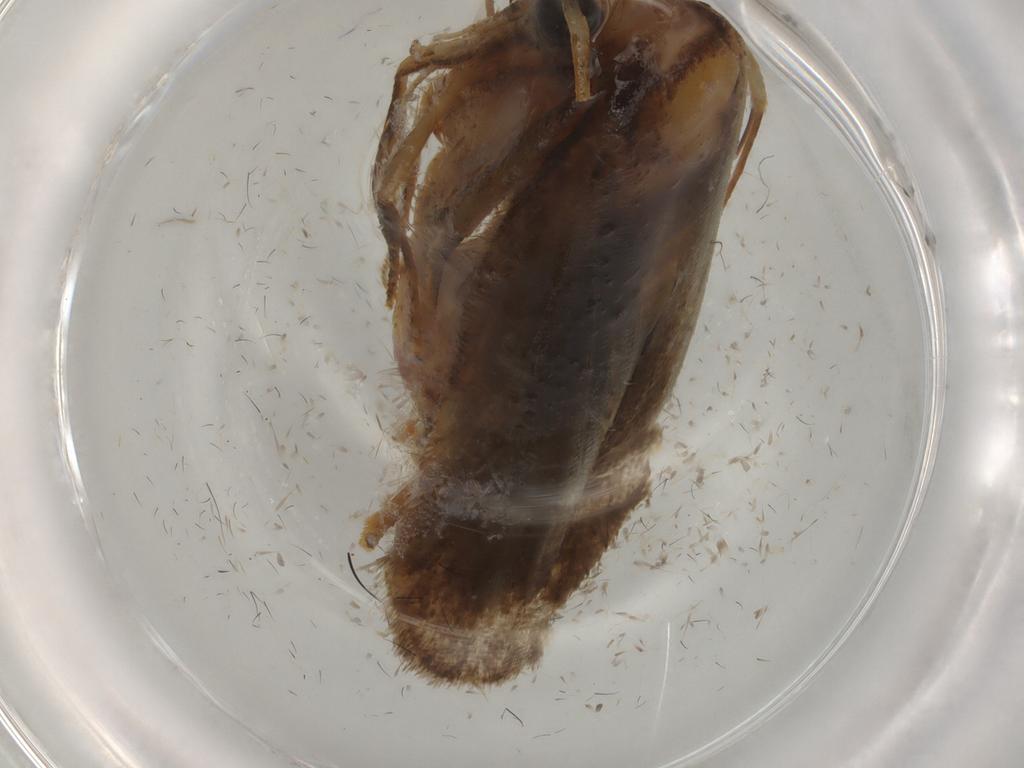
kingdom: Animalia
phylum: Arthropoda
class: Insecta
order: Lepidoptera
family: Autostichidae
